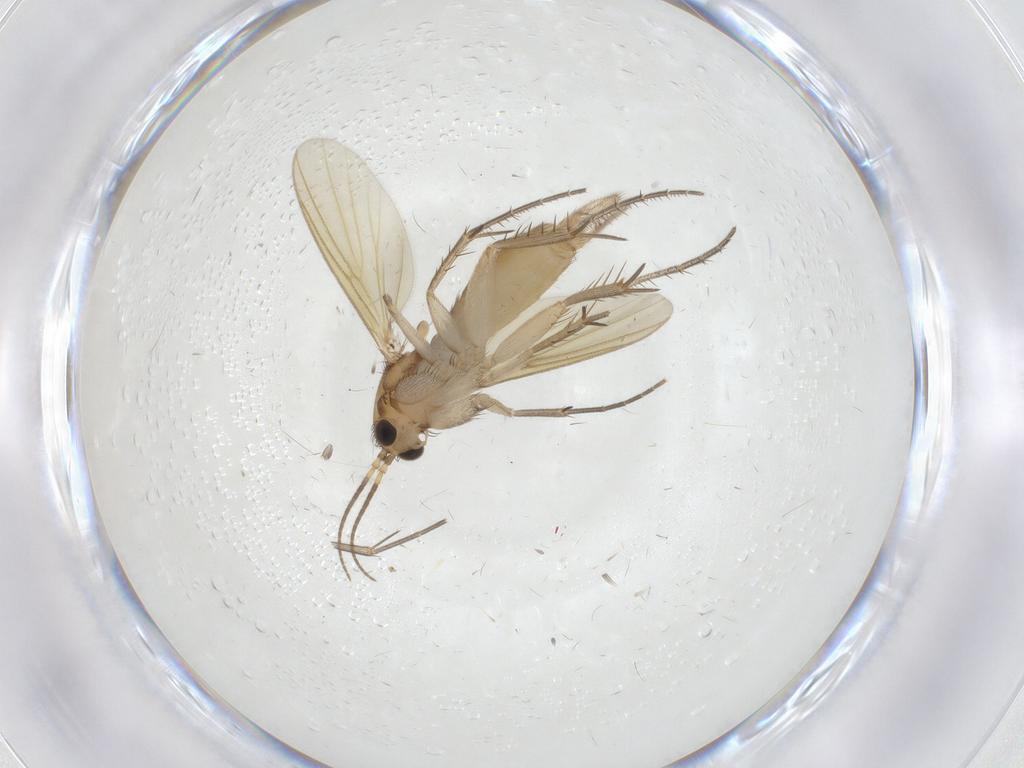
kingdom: Animalia
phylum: Arthropoda
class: Insecta
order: Diptera
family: Mycetophilidae
